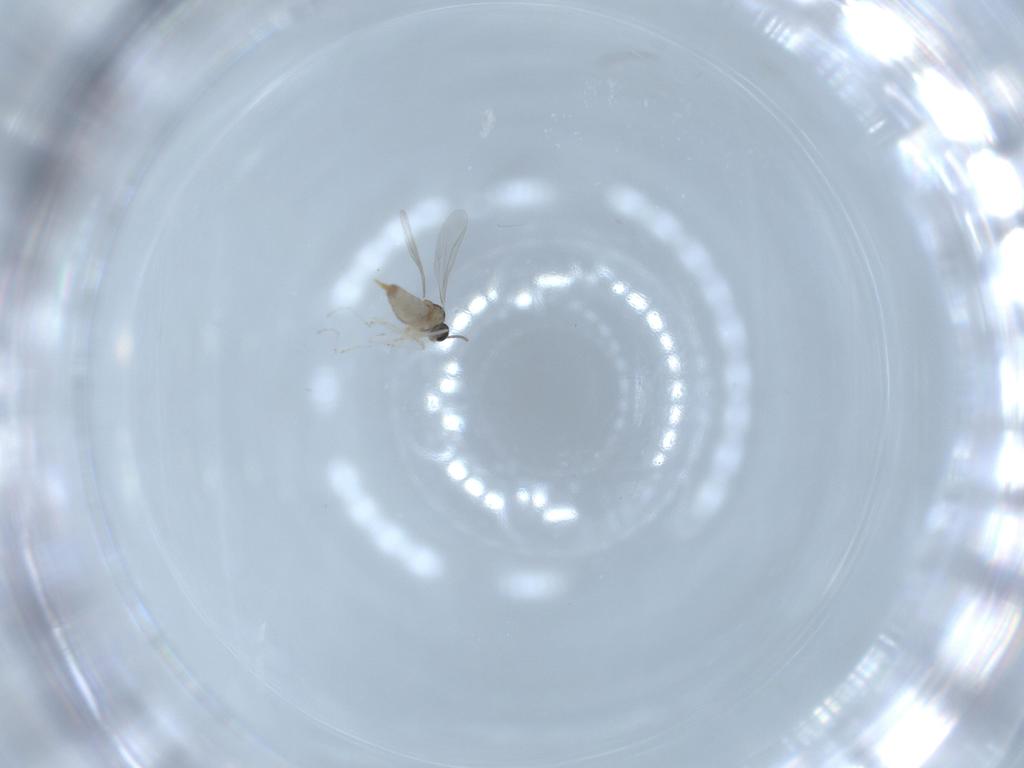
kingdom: Animalia
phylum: Arthropoda
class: Insecta
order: Diptera
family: Cecidomyiidae
